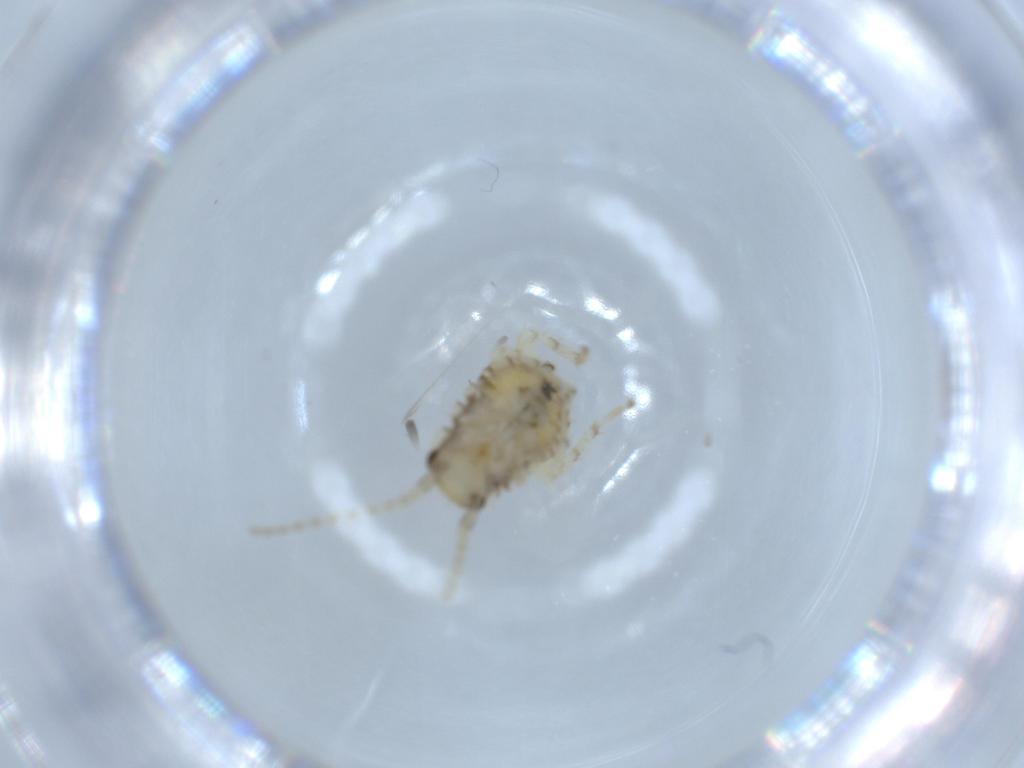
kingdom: Animalia
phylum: Arthropoda
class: Insecta
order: Blattodea
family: Ectobiidae
